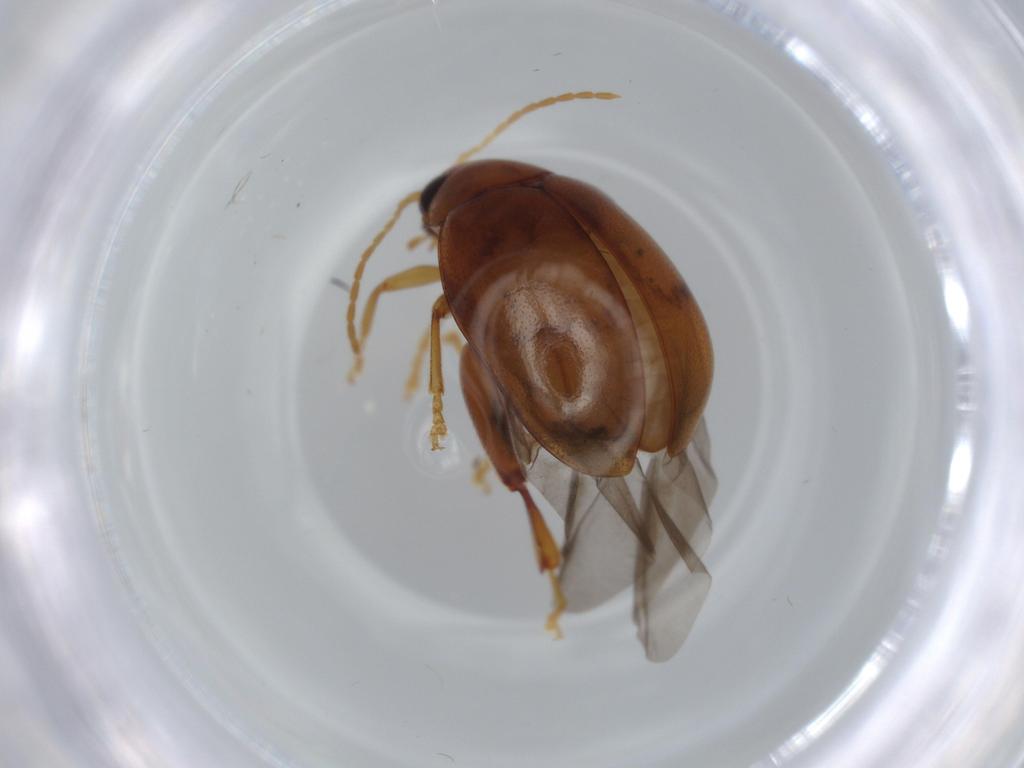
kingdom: Animalia
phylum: Arthropoda
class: Insecta
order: Coleoptera
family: Chrysomelidae
